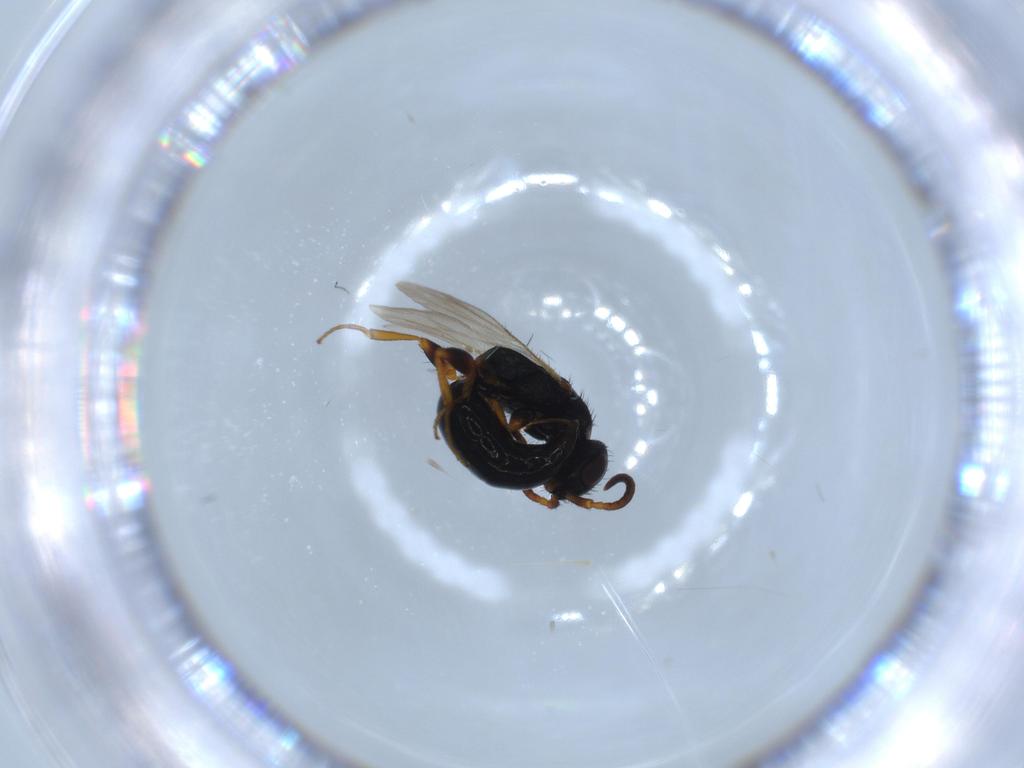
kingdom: Animalia
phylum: Arthropoda
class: Insecta
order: Hymenoptera
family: Bethylidae
